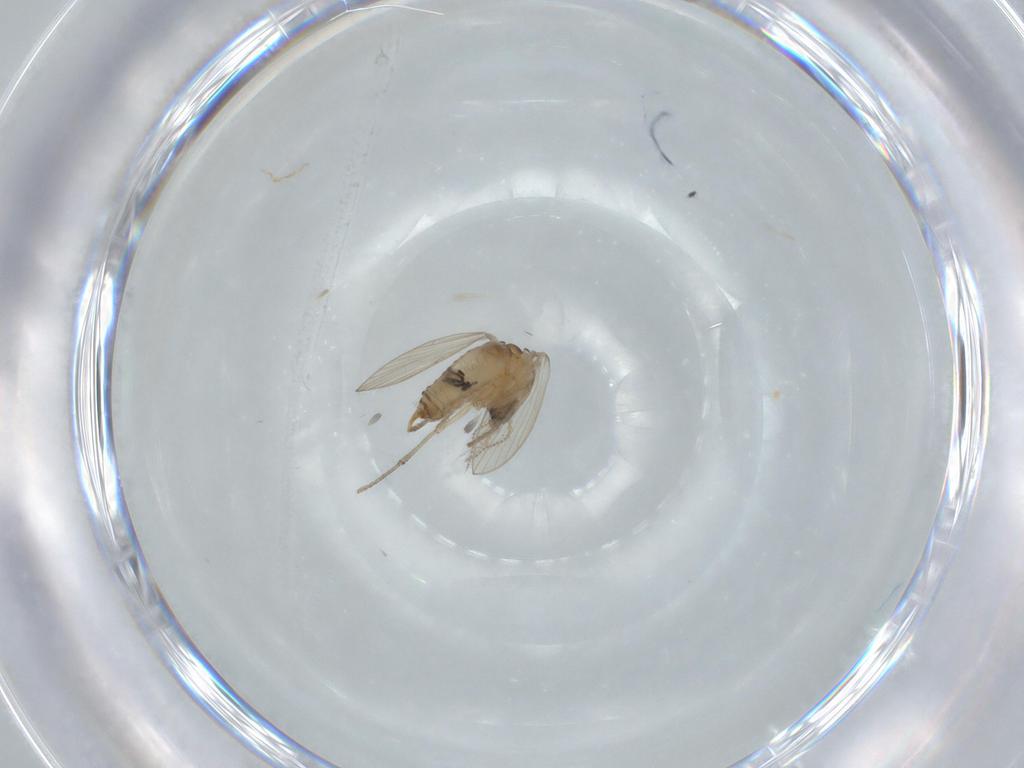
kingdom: Animalia
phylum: Arthropoda
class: Insecta
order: Diptera
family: Psychodidae
